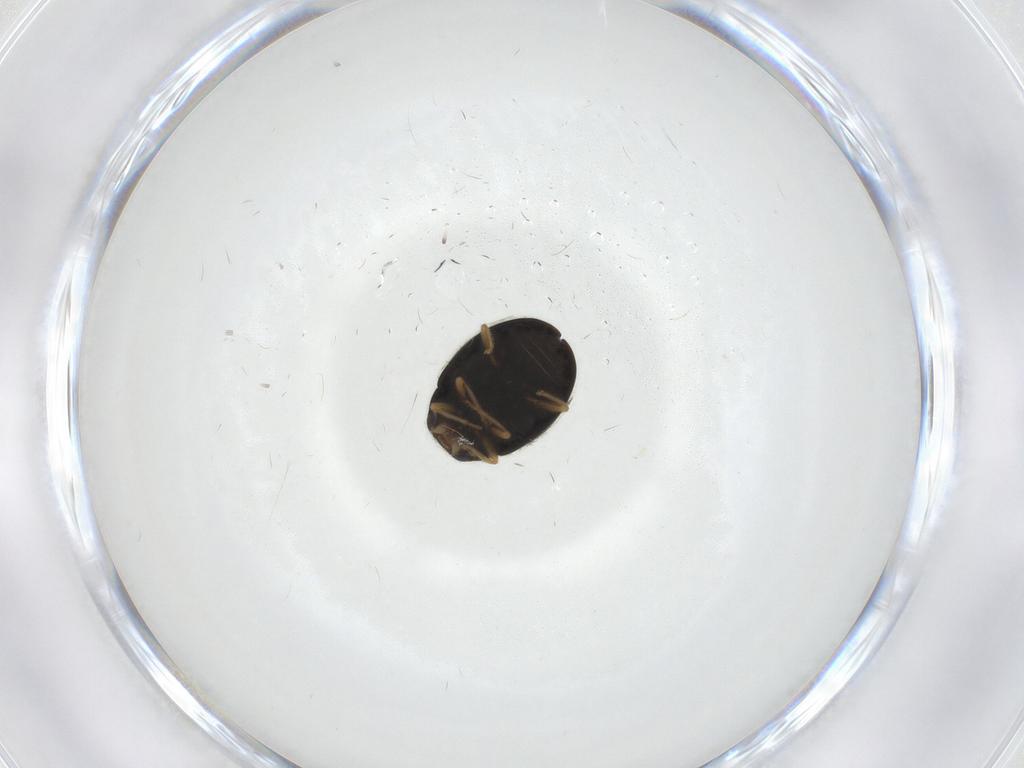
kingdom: Animalia
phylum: Arthropoda
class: Insecta
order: Coleoptera
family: Coccinellidae
